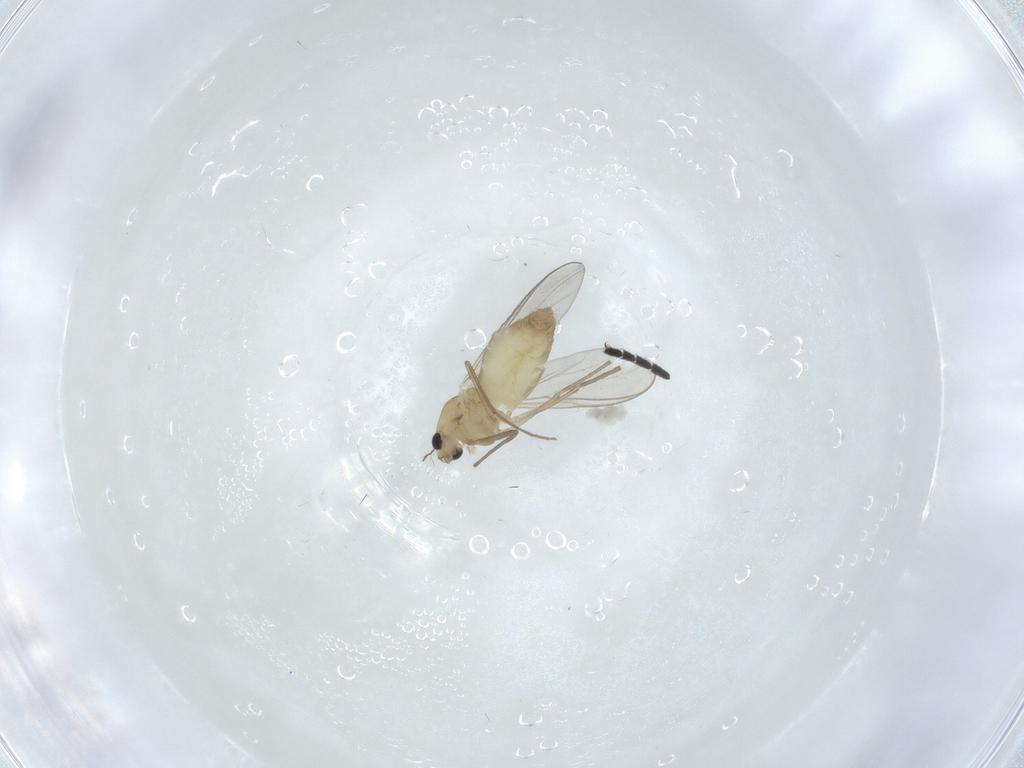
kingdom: Animalia
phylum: Arthropoda
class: Insecta
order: Diptera
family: Chironomidae
